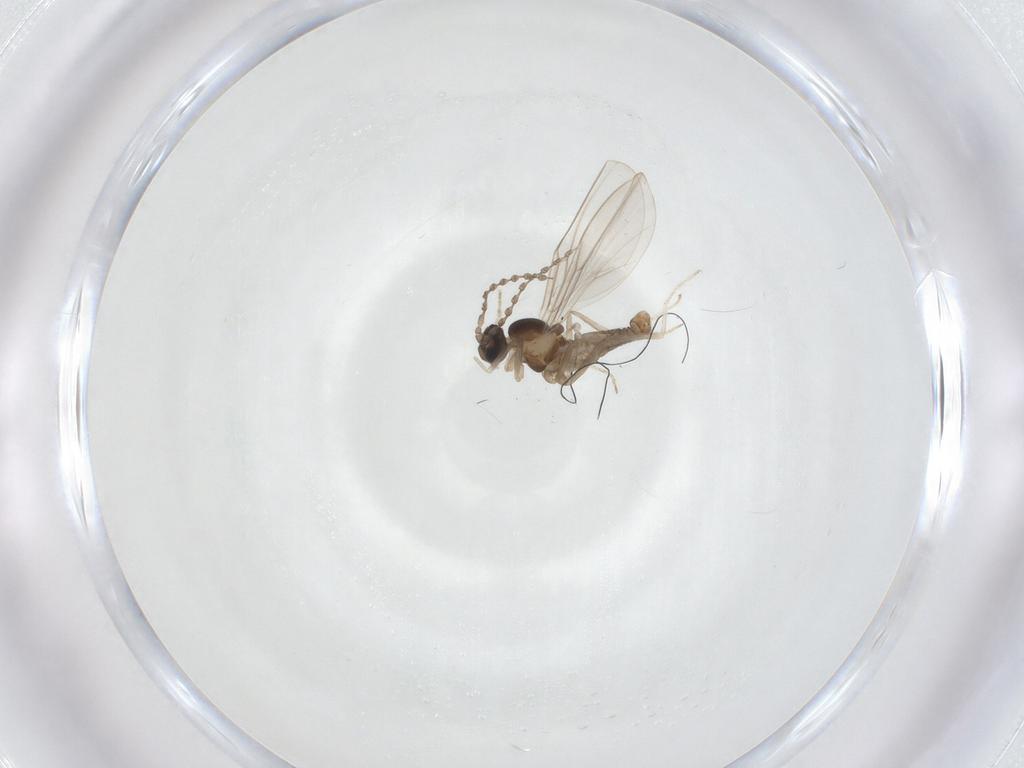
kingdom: Animalia
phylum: Arthropoda
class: Insecta
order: Diptera
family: Cecidomyiidae
